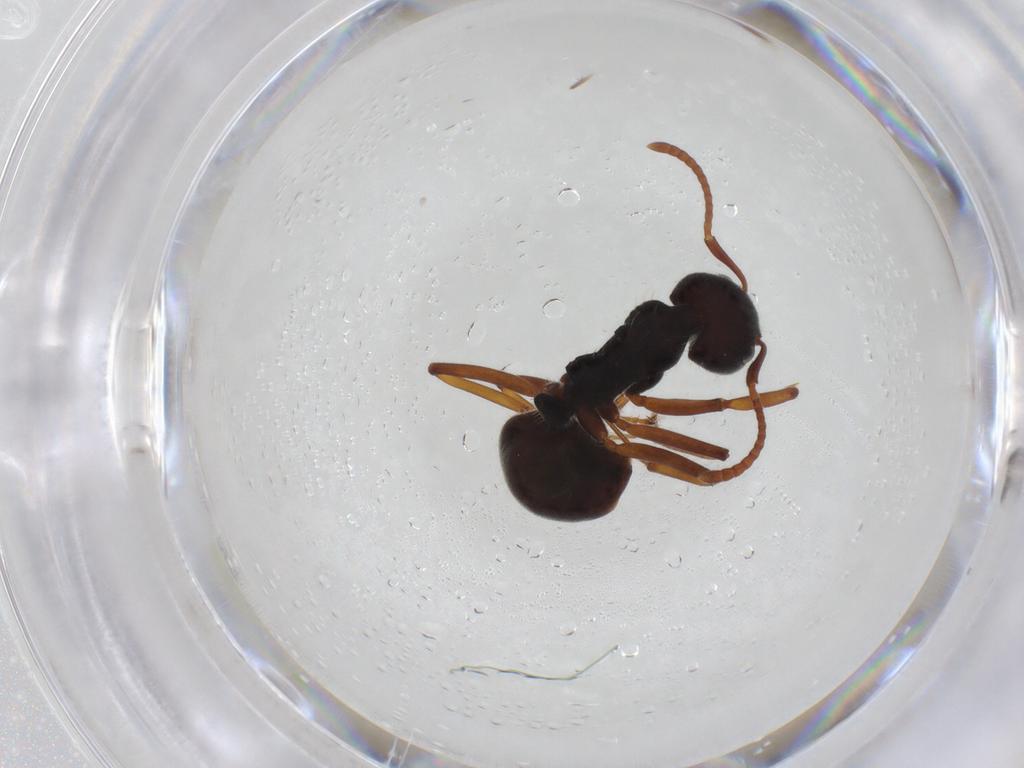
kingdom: Animalia
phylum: Arthropoda
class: Insecta
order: Hymenoptera
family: Formicidae
